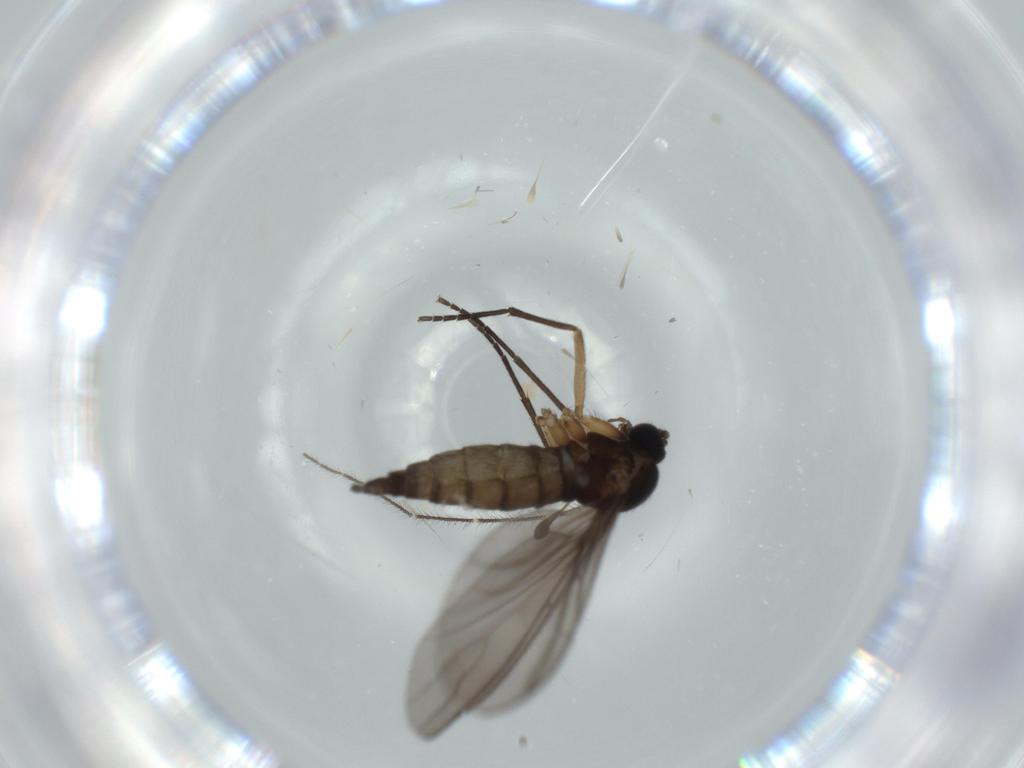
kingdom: Animalia
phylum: Arthropoda
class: Insecta
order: Diptera
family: Sciaridae
